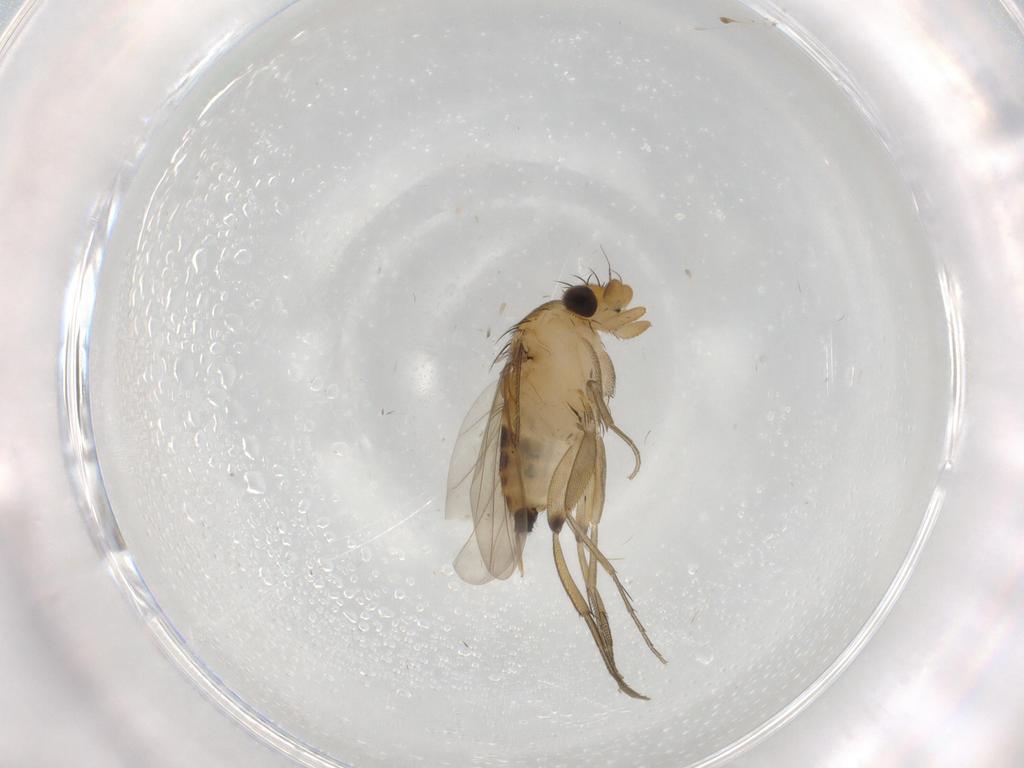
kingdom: Animalia
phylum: Arthropoda
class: Insecta
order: Diptera
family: Phoridae
